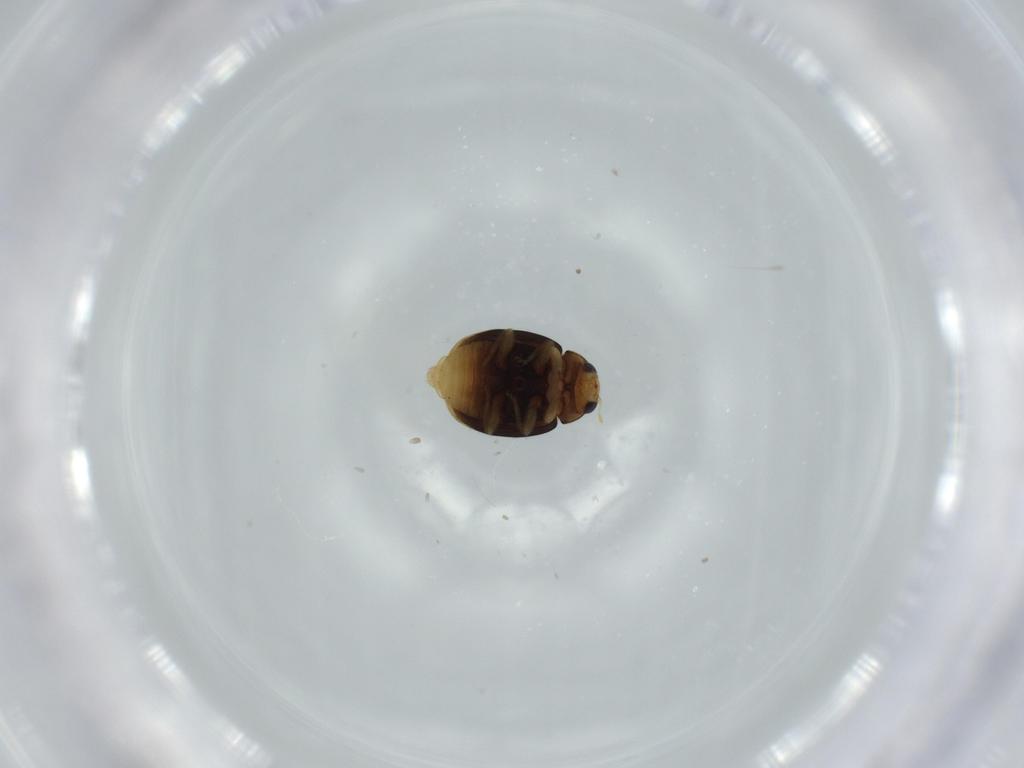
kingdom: Animalia
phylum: Arthropoda
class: Insecta
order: Coleoptera
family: Coccinellidae
